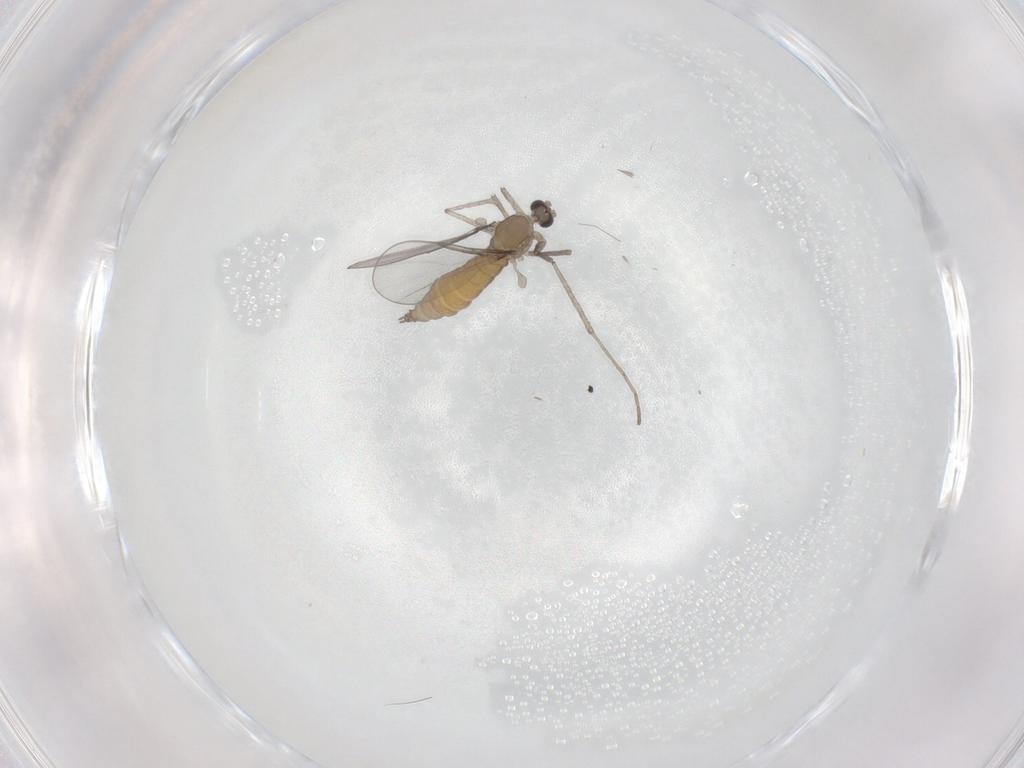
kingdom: Animalia
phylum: Arthropoda
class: Insecta
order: Diptera
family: Cecidomyiidae
